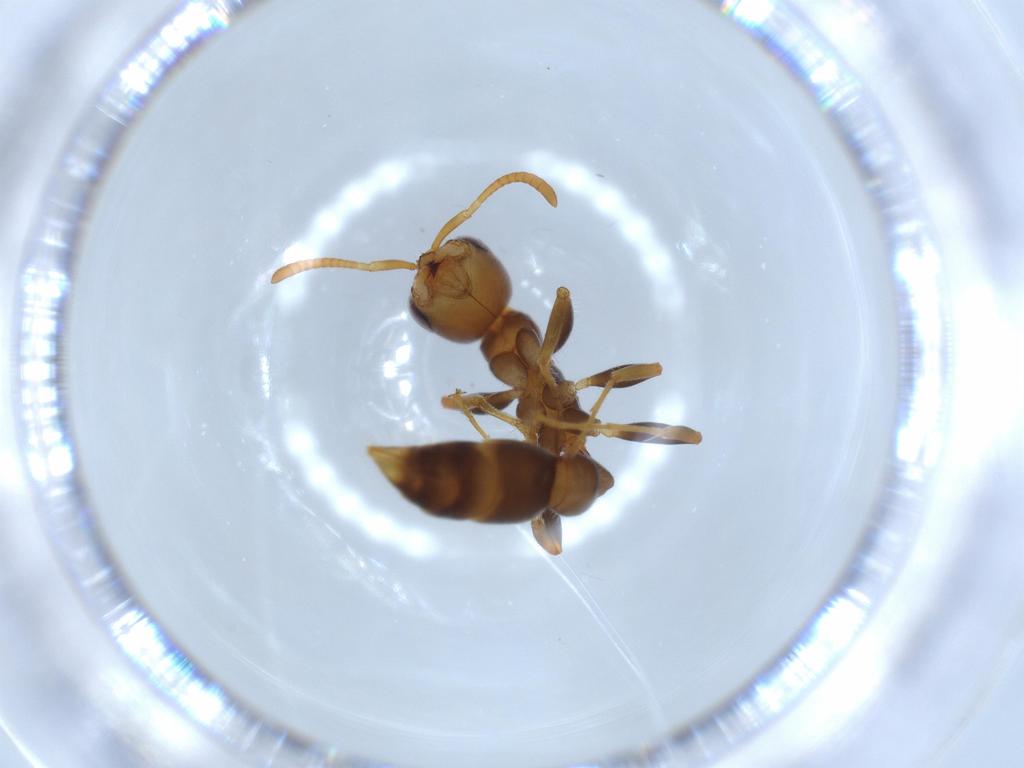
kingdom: Animalia
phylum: Arthropoda
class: Insecta
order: Hymenoptera
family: Formicidae
